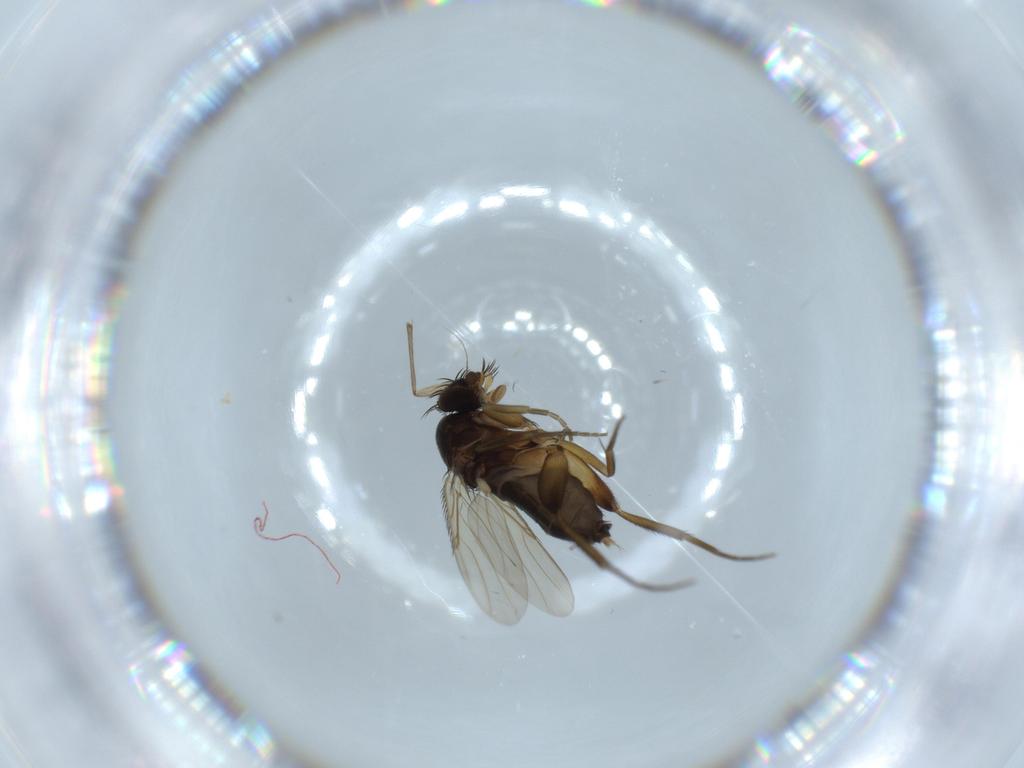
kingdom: Animalia
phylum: Arthropoda
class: Insecta
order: Diptera
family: Phoridae
